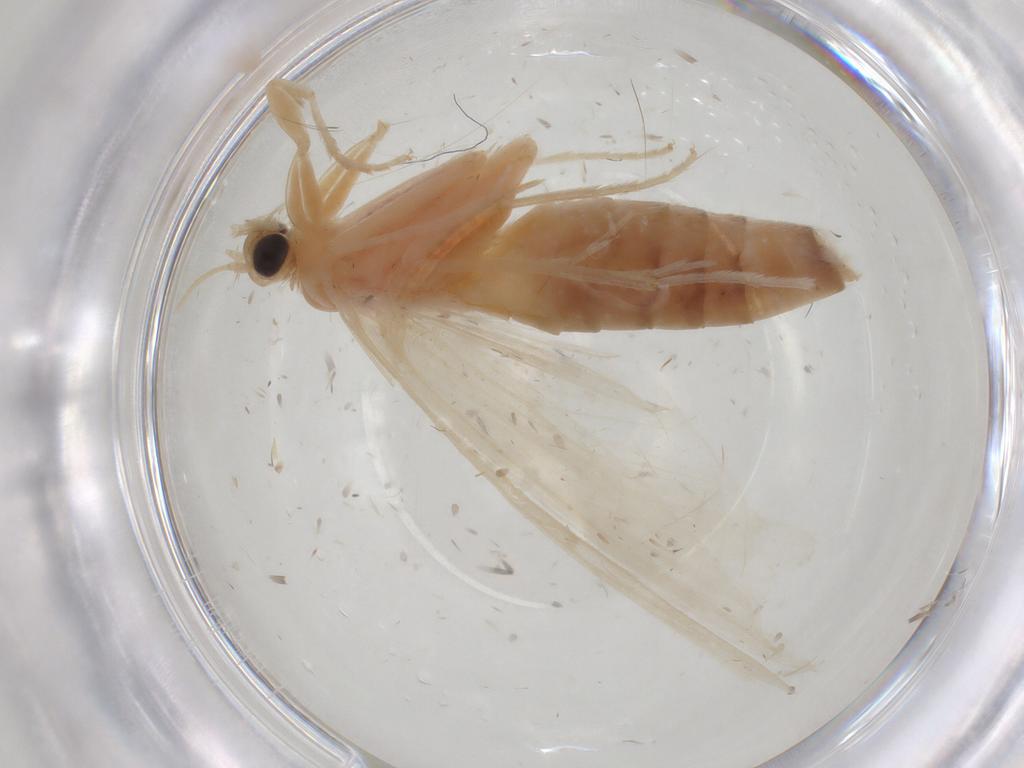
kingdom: Animalia
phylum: Arthropoda
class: Insecta
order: Lepidoptera
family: Crambidae
